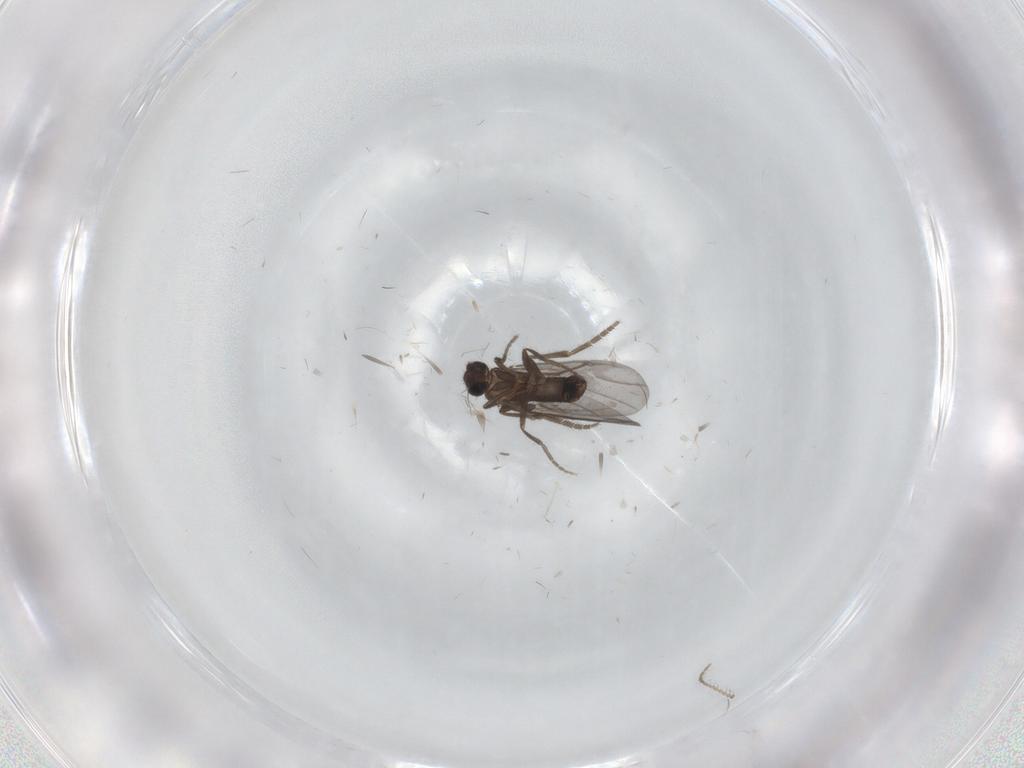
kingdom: Animalia
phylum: Arthropoda
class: Insecta
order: Diptera
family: Phoridae
